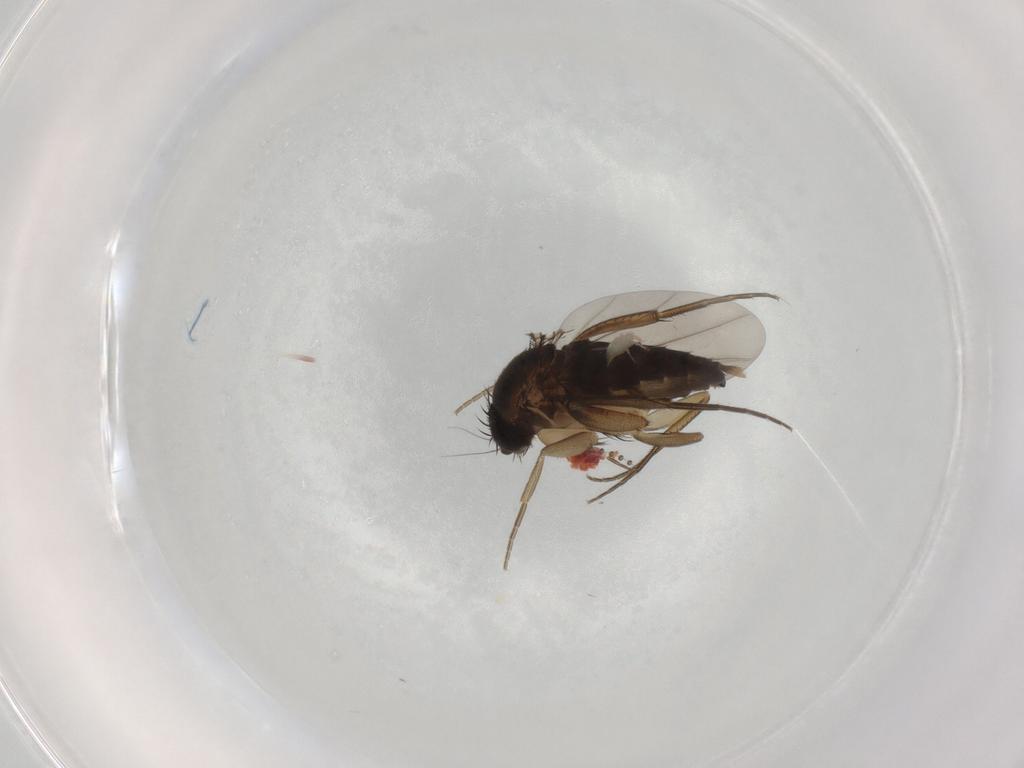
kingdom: Animalia
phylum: Arthropoda
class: Insecta
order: Diptera
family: Phoridae
